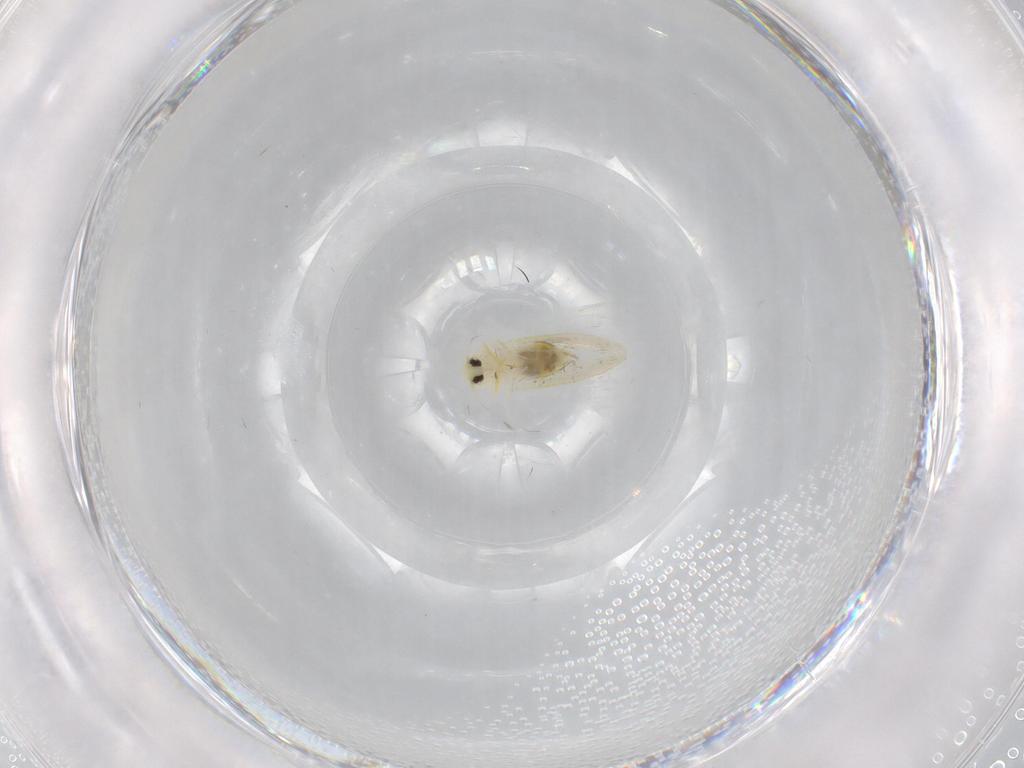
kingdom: Animalia
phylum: Arthropoda
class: Insecta
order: Hemiptera
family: Aleyrodidae
